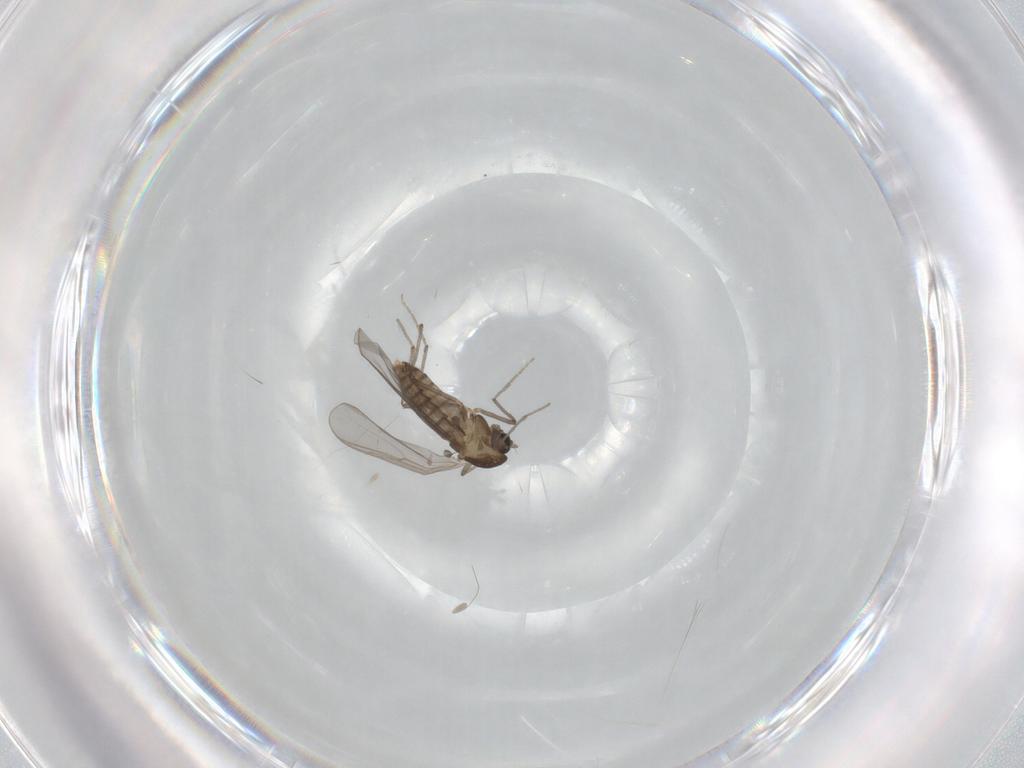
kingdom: Animalia
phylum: Arthropoda
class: Insecta
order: Diptera
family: Chironomidae
